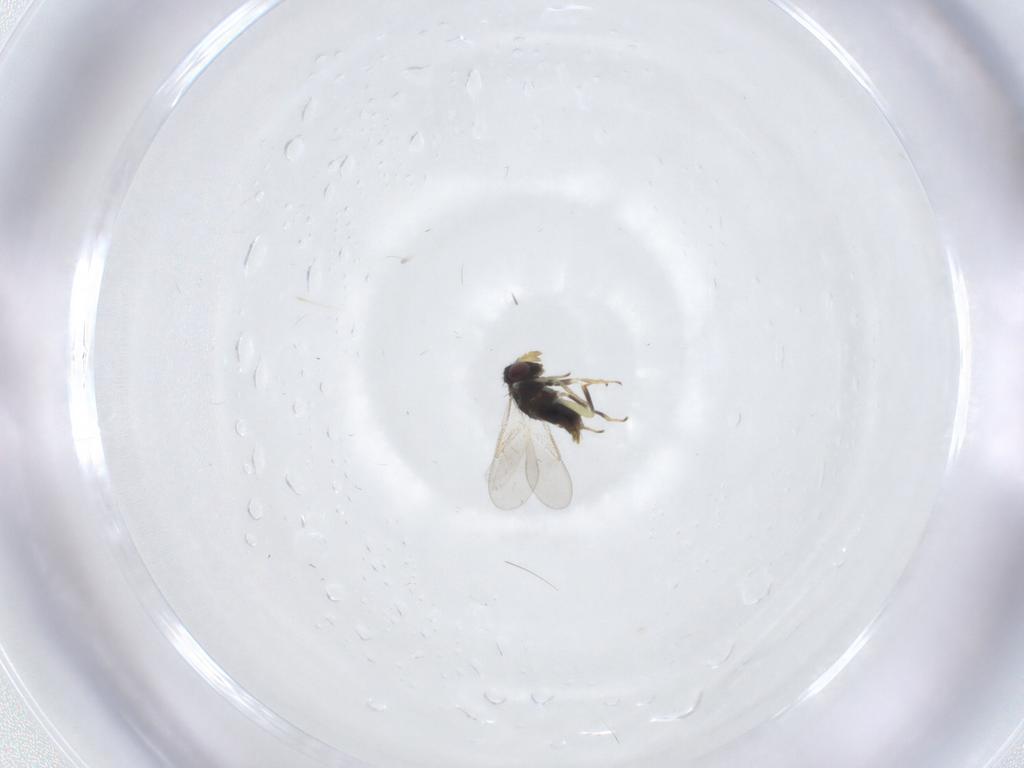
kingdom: Animalia
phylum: Arthropoda
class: Insecta
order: Hymenoptera
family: Aphelinidae
